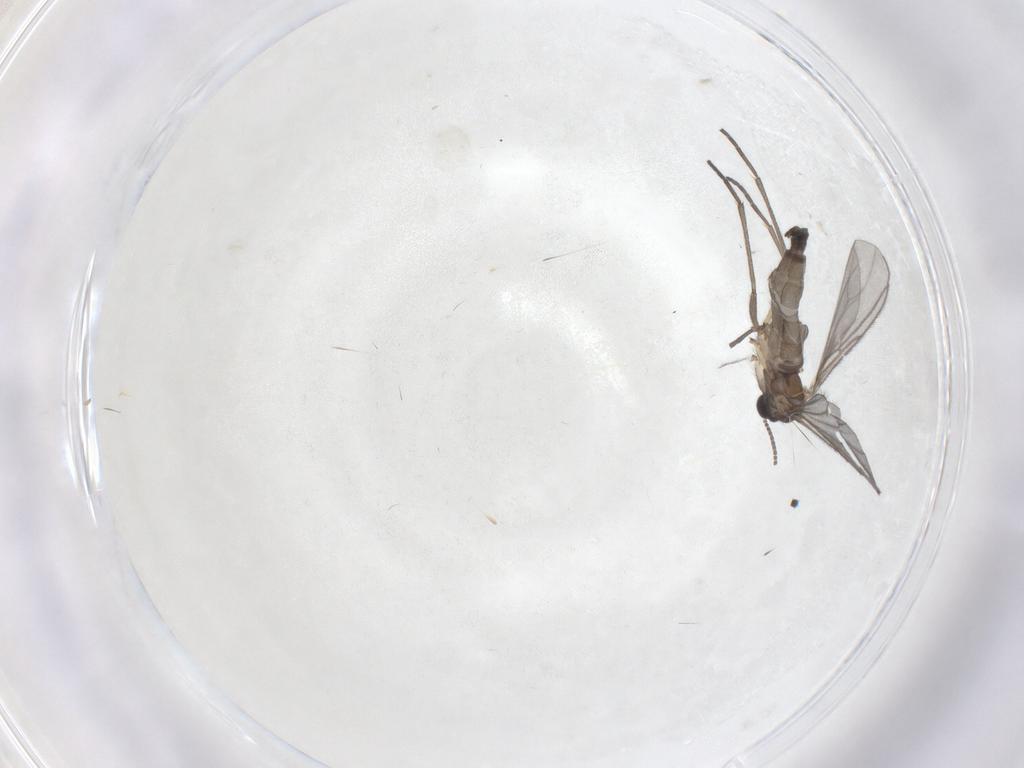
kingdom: Animalia
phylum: Arthropoda
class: Insecta
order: Diptera
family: Sciaridae
